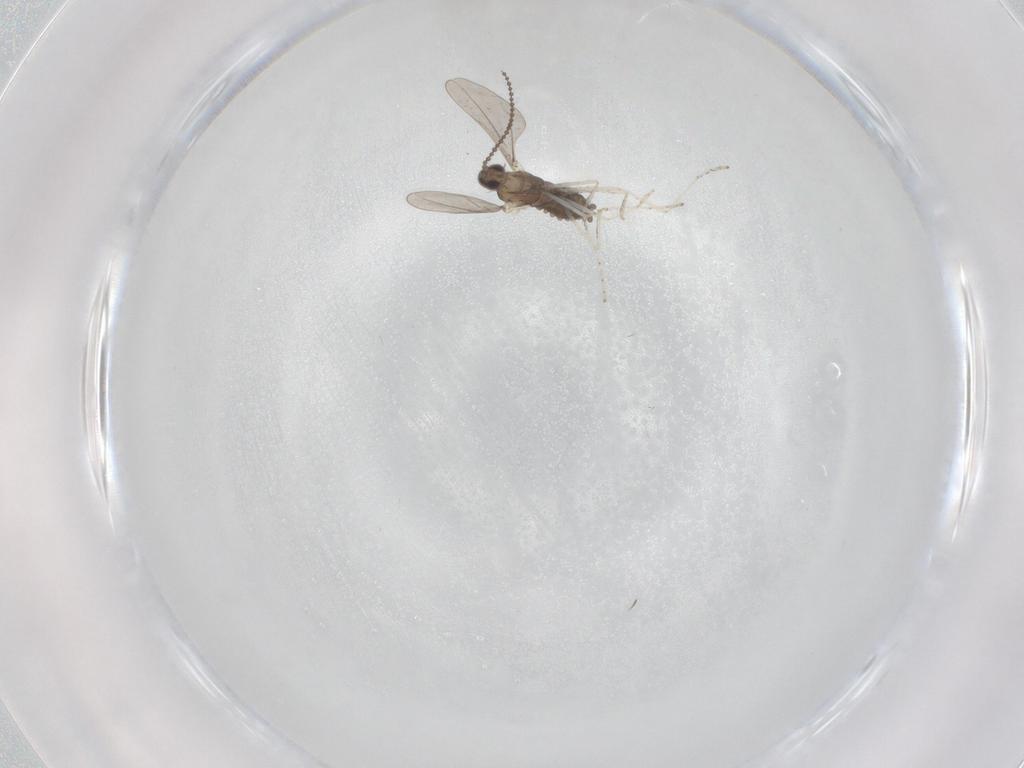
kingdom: Animalia
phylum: Arthropoda
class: Insecta
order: Diptera
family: Cecidomyiidae
